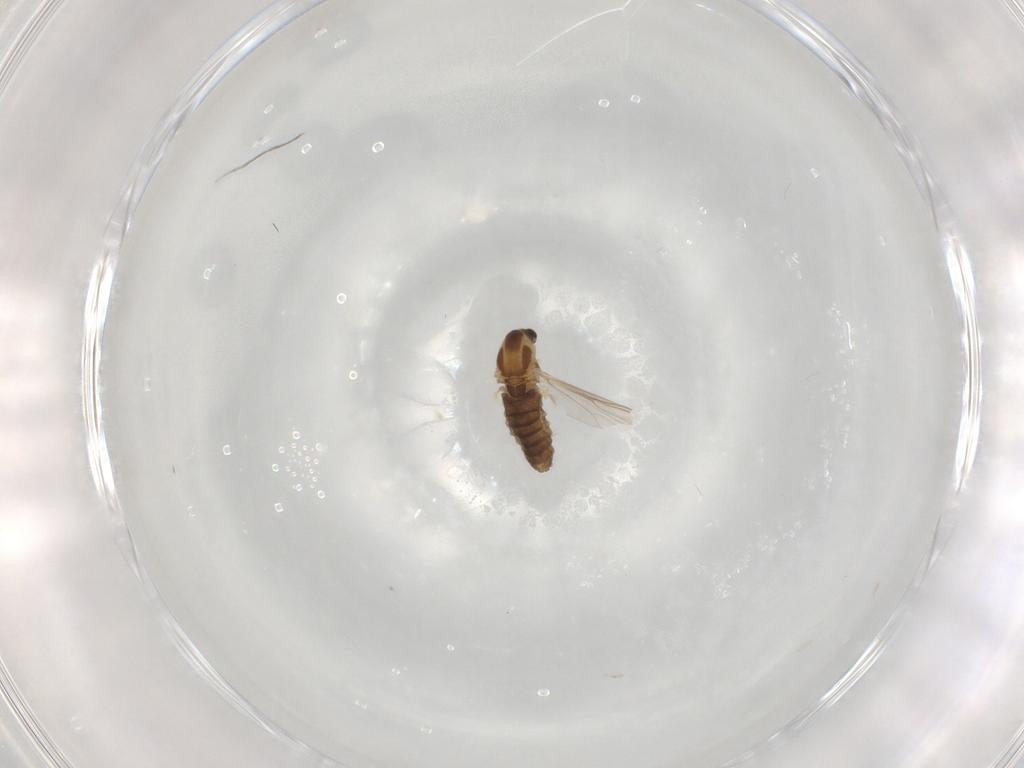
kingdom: Animalia
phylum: Arthropoda
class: Insecta
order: Diptera
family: Chironomidae
